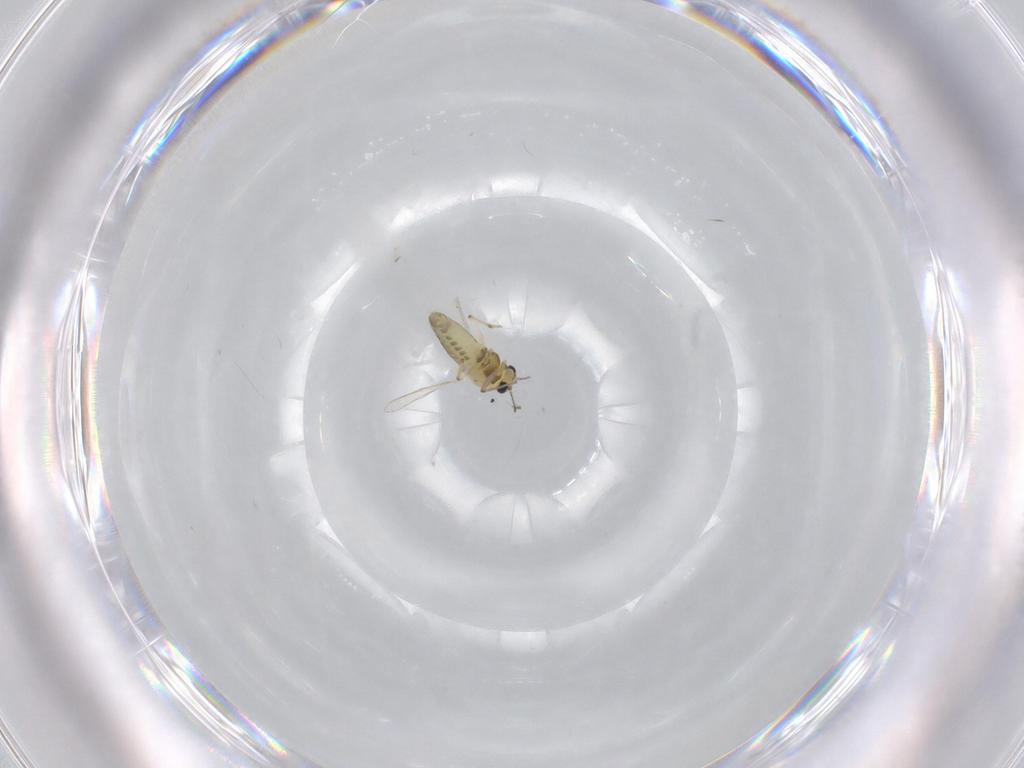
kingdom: Animalia
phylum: Arthropoda
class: Insecta
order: Diptera
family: Chironomidae
